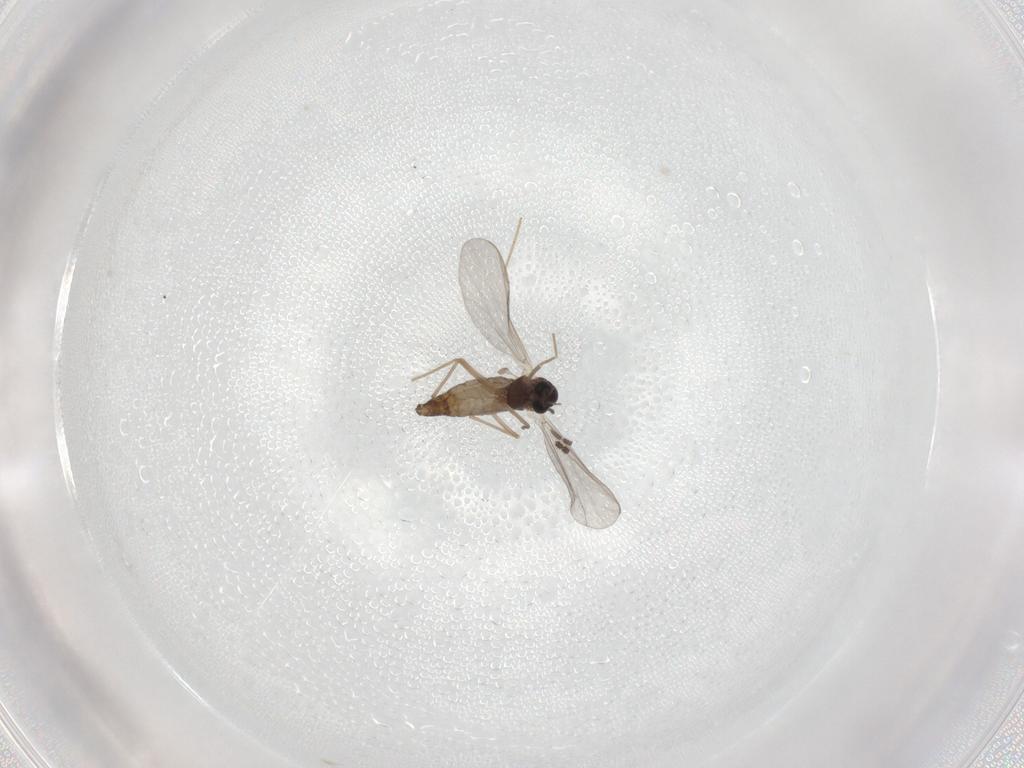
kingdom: Animalia
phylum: Arthropoda
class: Insecta
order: Diptera
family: Chironomidae
